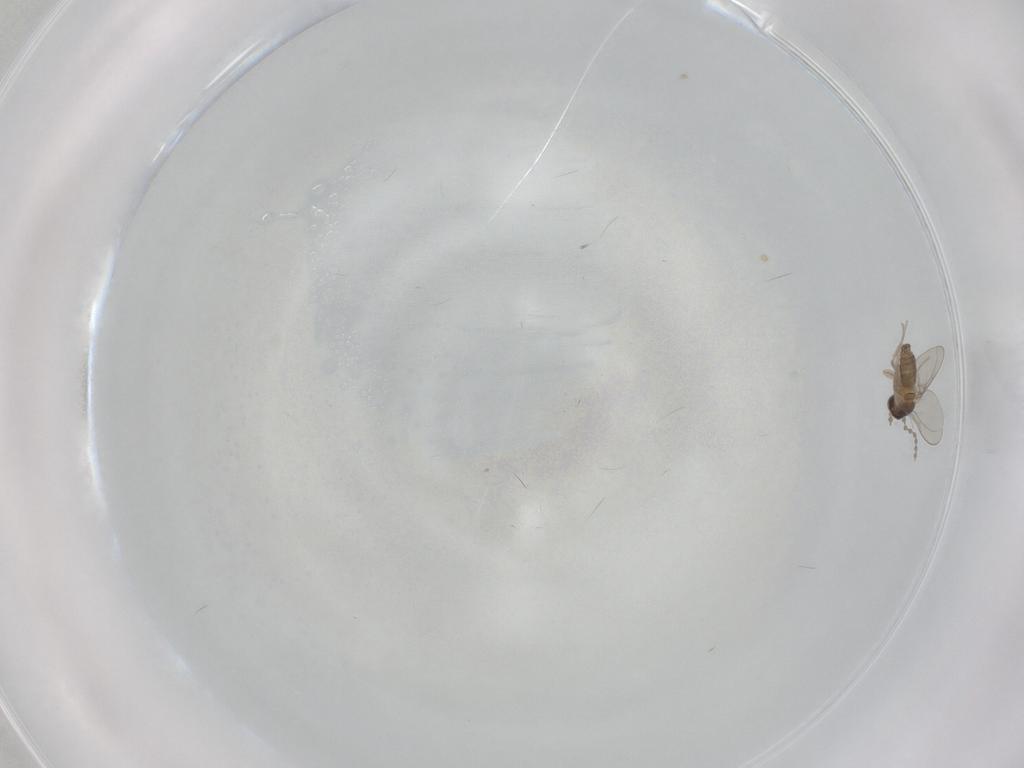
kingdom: Animalia
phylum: Arthropoda
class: Insecta
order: Diptera
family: Cecidomyiidae
